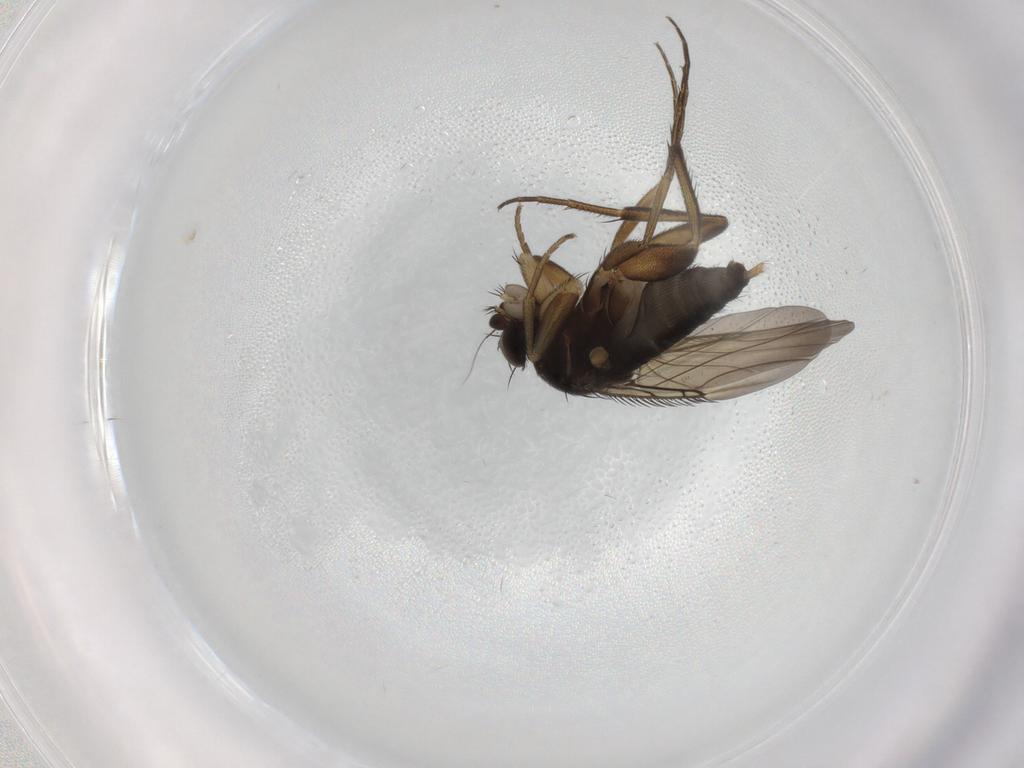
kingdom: Animalia
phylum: Arthropoda
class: Insecta
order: Diptera
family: Phoridae
